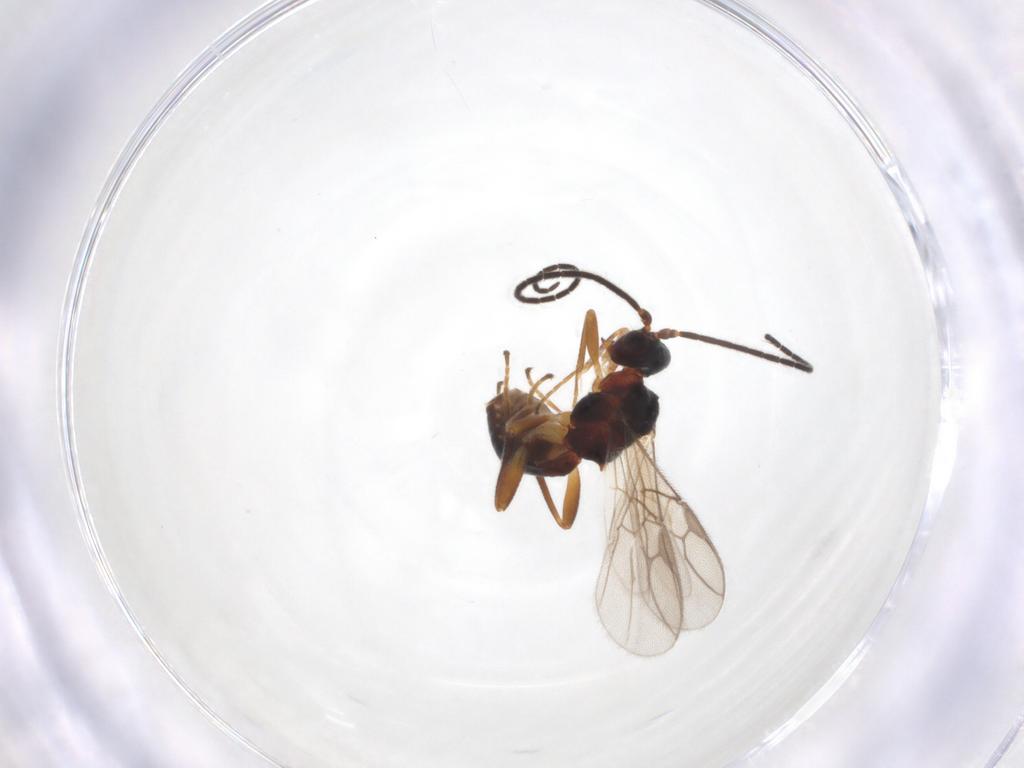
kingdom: Animalia
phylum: Arthropoda
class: Insecta
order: Hymenoptera
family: Braconidae
